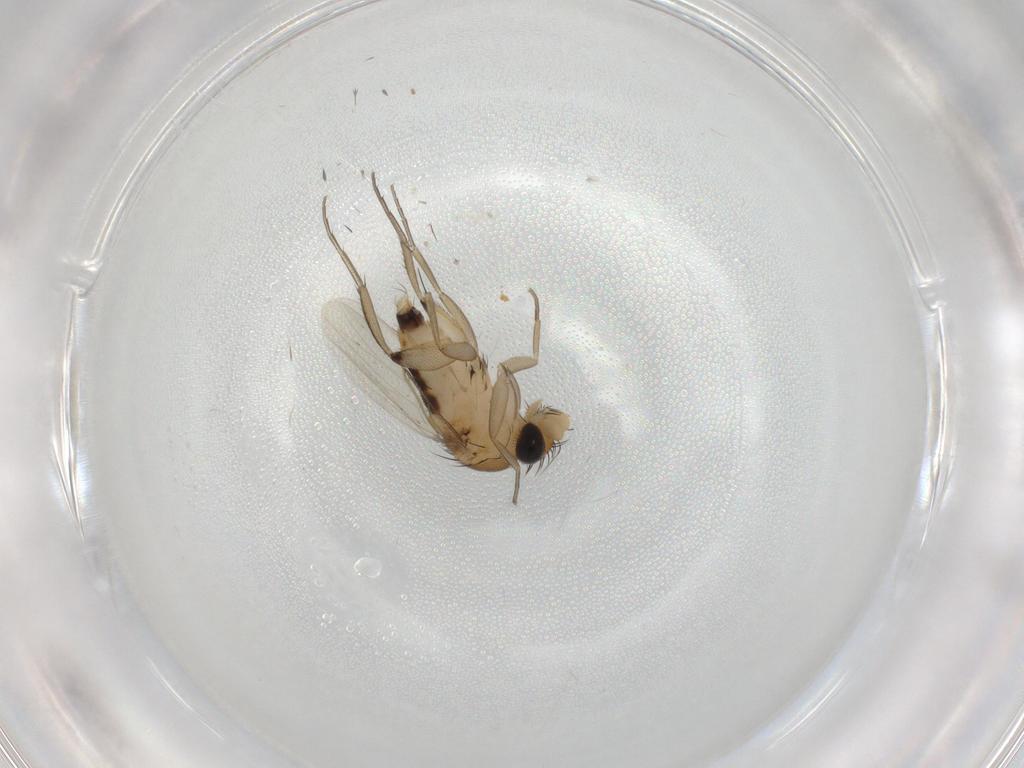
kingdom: Animalia
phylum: Arthropoda
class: Insecta
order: Diptera
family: Phoridae
